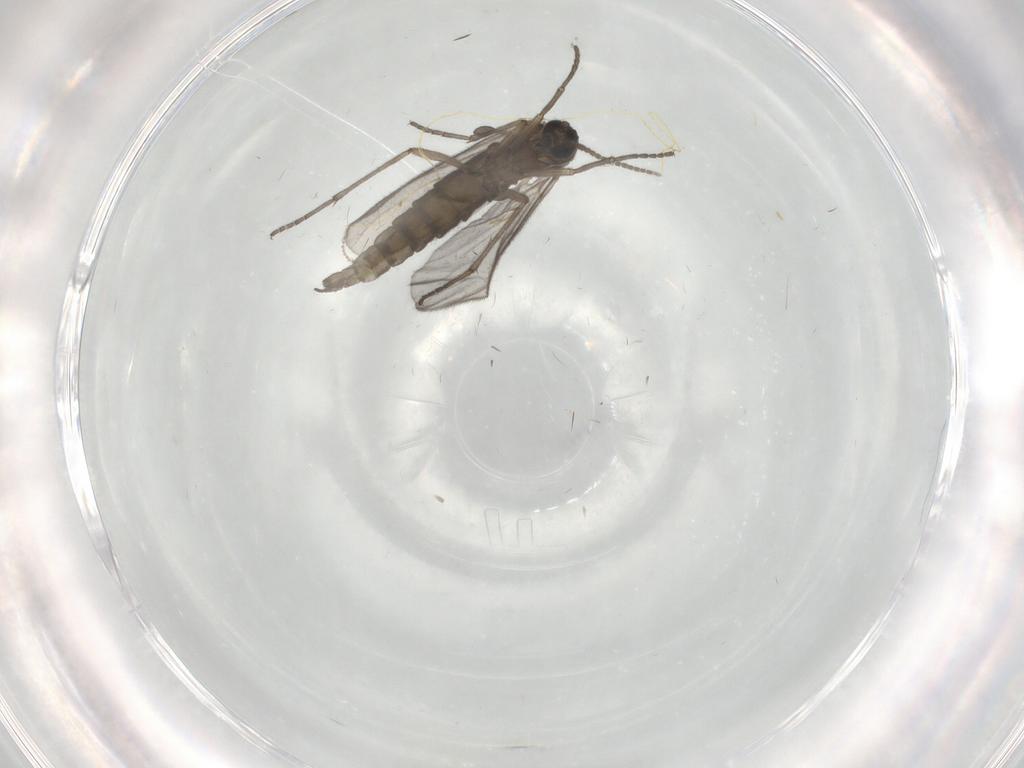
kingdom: Animalia
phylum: Arthropoda
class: Insecta
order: Diptera
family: Sciaridae
